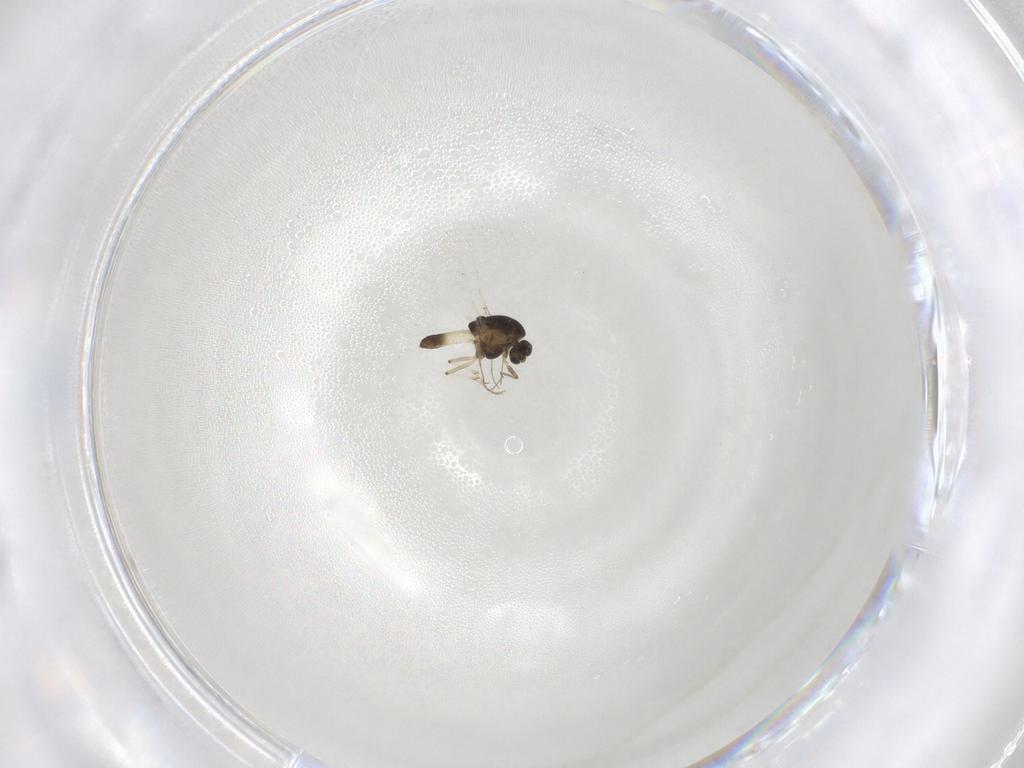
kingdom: Animalia
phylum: Arthropoda
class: Insecta
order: Diptera
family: Chironomidae
